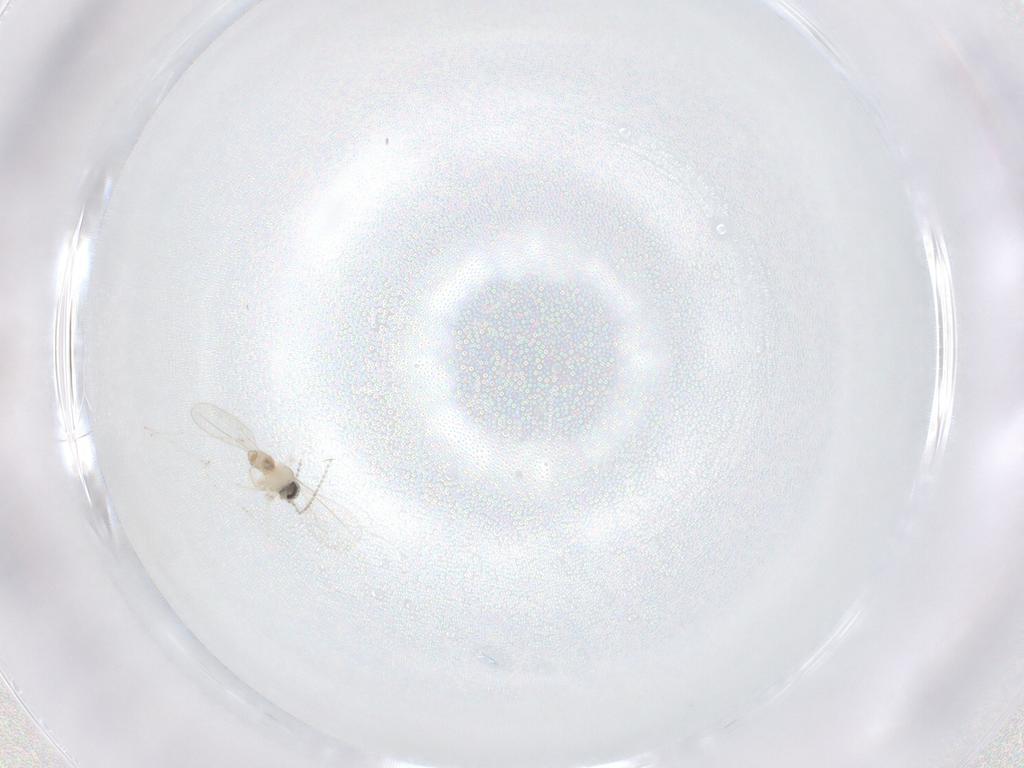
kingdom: Animalia
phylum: Arthropoda
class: Insecta
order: Diptera
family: Cecidomyiidae
